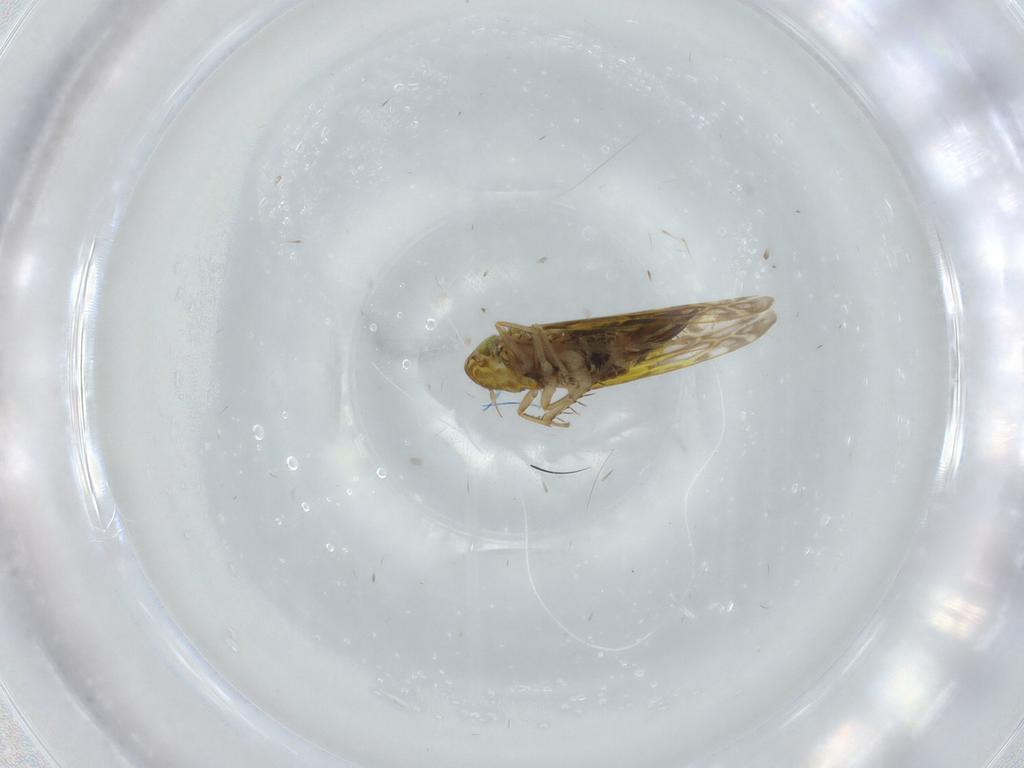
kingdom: Animalia
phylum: Arthropoda
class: Insecta
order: Hemiptera
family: Cicadellidae
